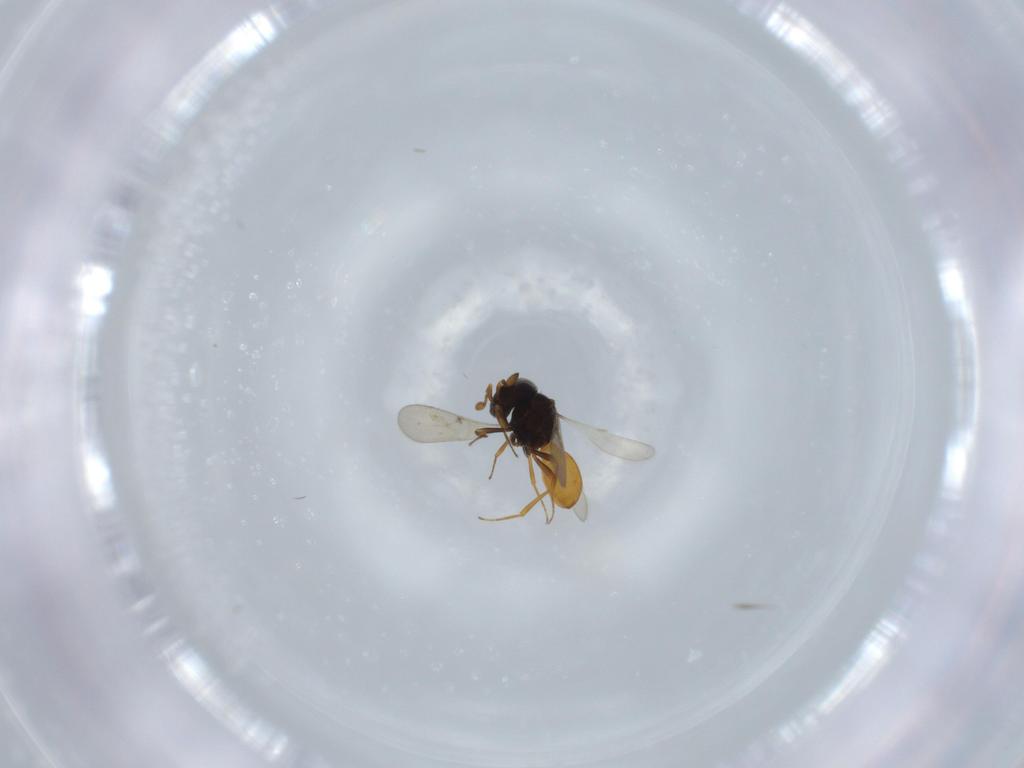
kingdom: Animalia
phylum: Arthropoda
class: Insecta
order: Hymenoptera
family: Scelionidae
